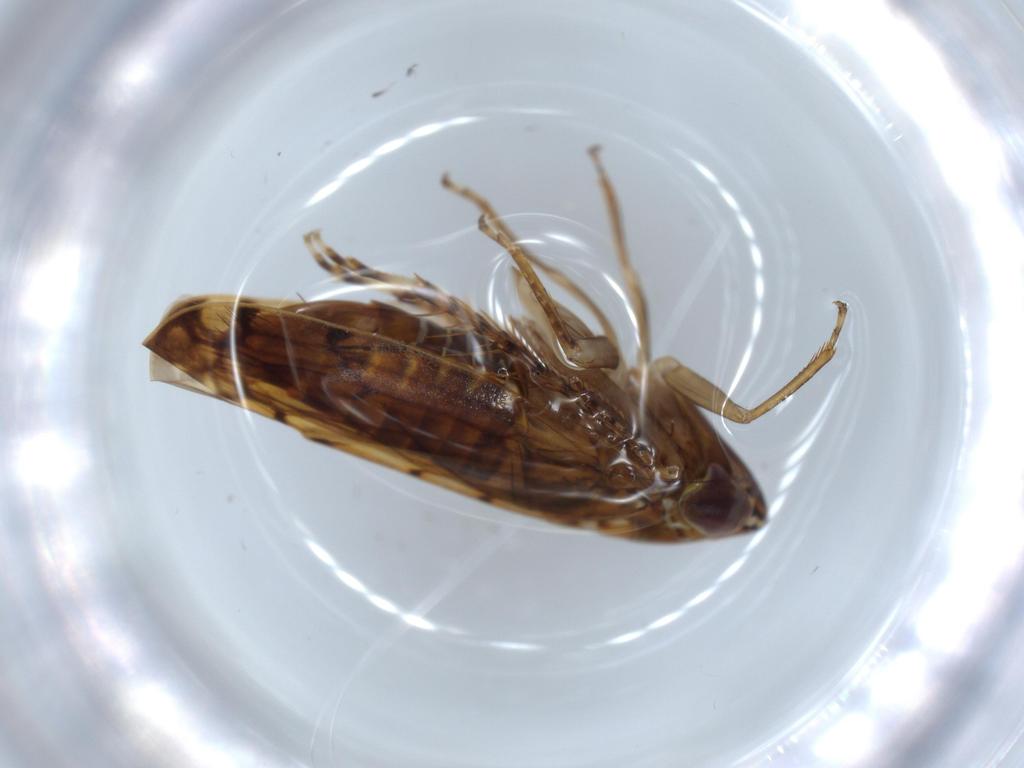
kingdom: Animalia
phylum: Arthropoda
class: Insecta
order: Hemiptera
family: Cicadellidae
